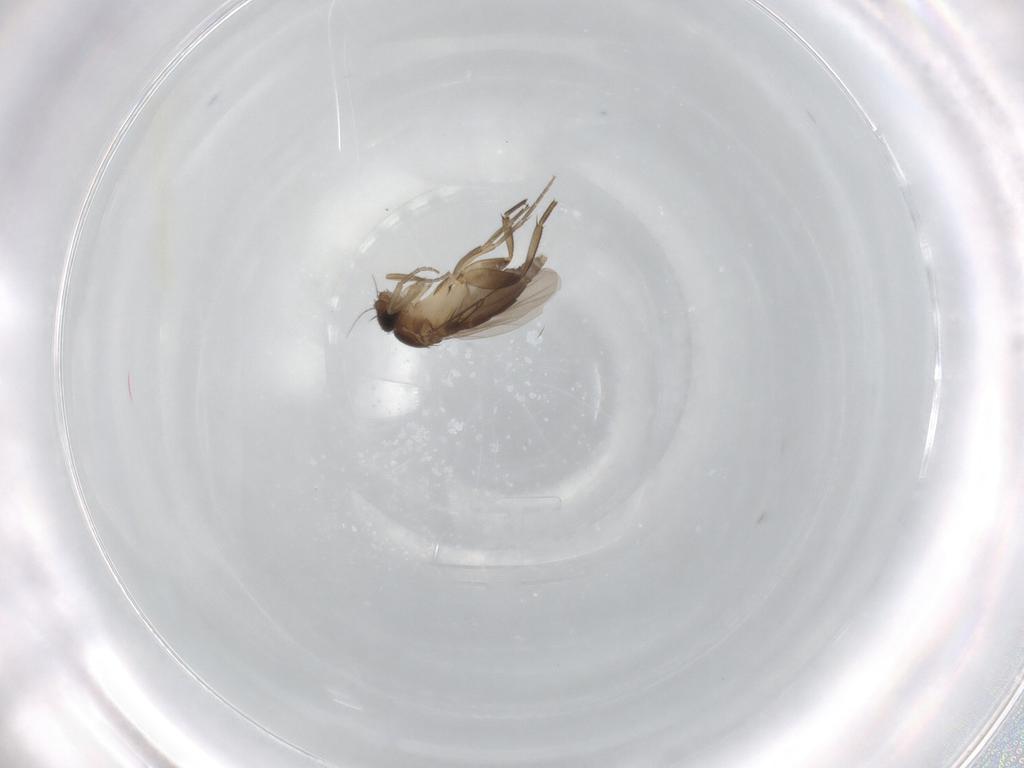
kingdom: Animalia
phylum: Arthropoda
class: Insecta
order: Diptera
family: Phoridae
